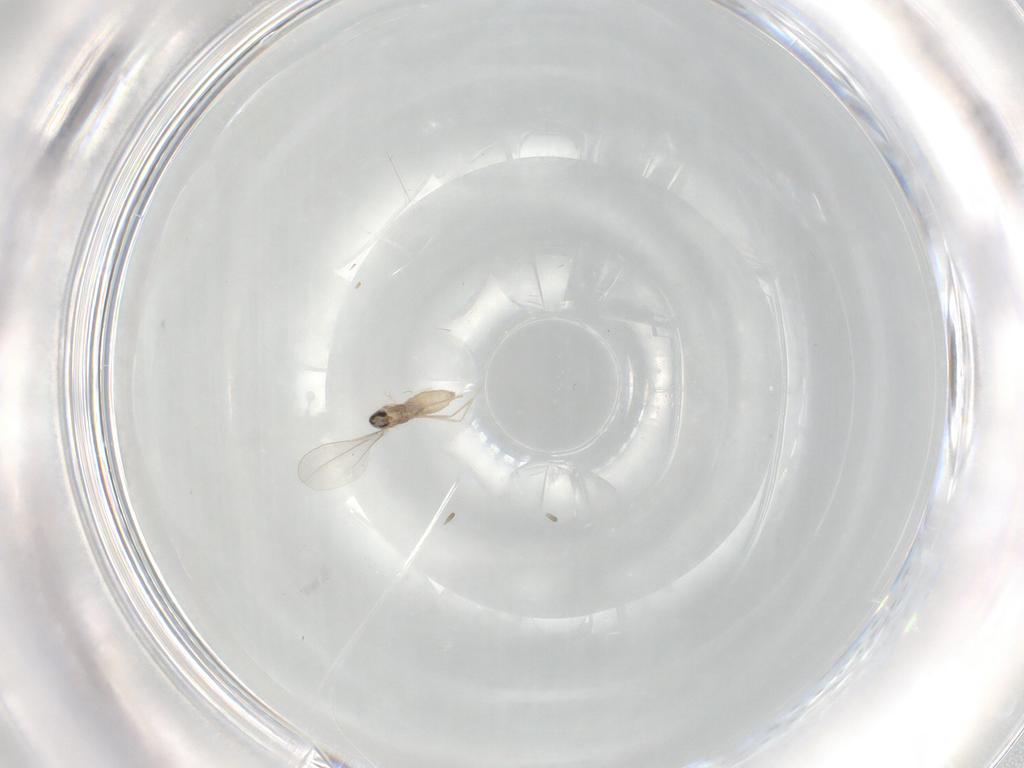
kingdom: Animalia
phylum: Arthropoda
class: Insecta
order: Diptera
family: Cecidomyiidae
